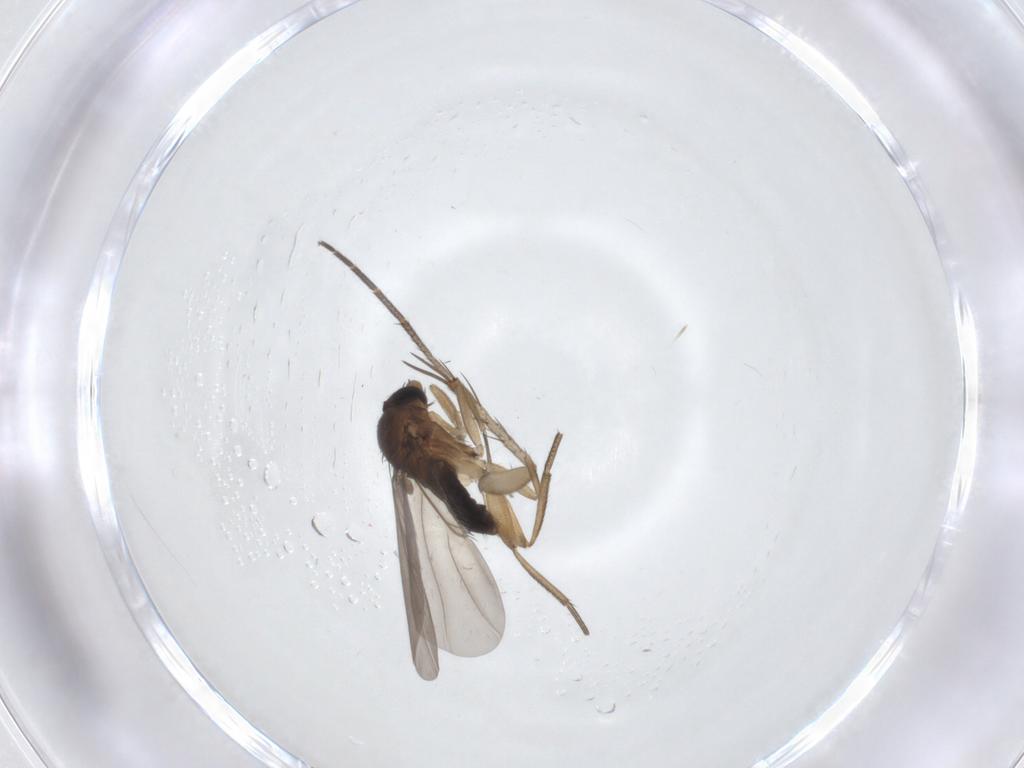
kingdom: Animalia
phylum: Arthropoda
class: Insecta
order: Diptera
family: Phoridae
